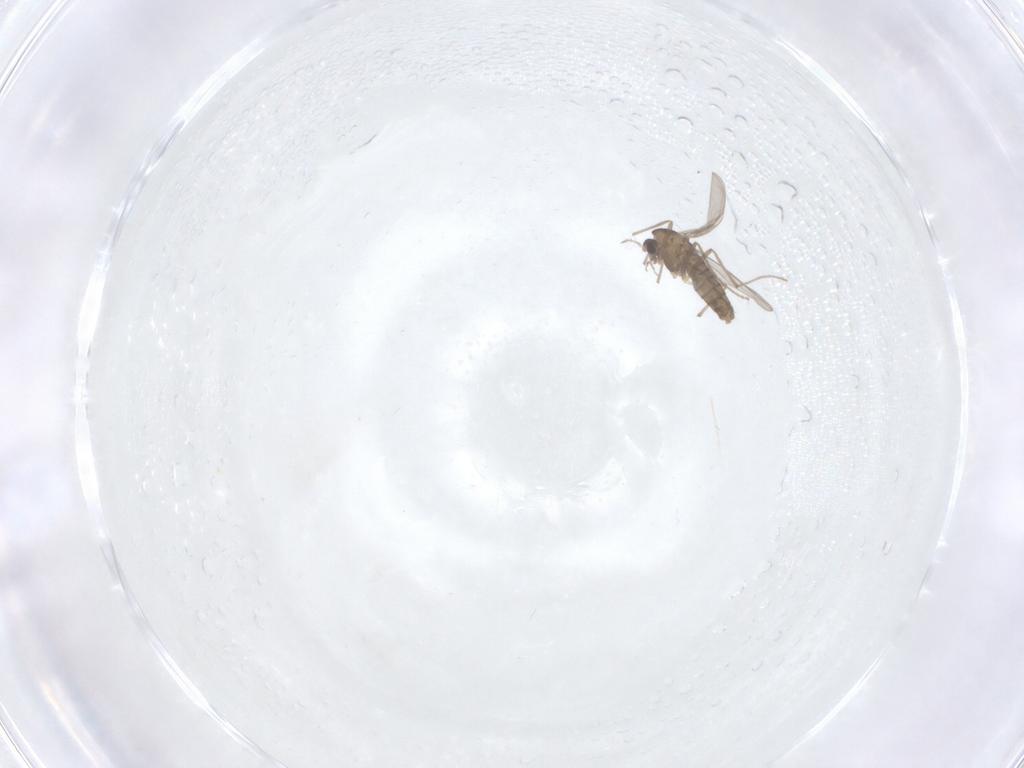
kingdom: Animalia
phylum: Arthropoda
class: Insecta
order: Diptera
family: Chironomidae
